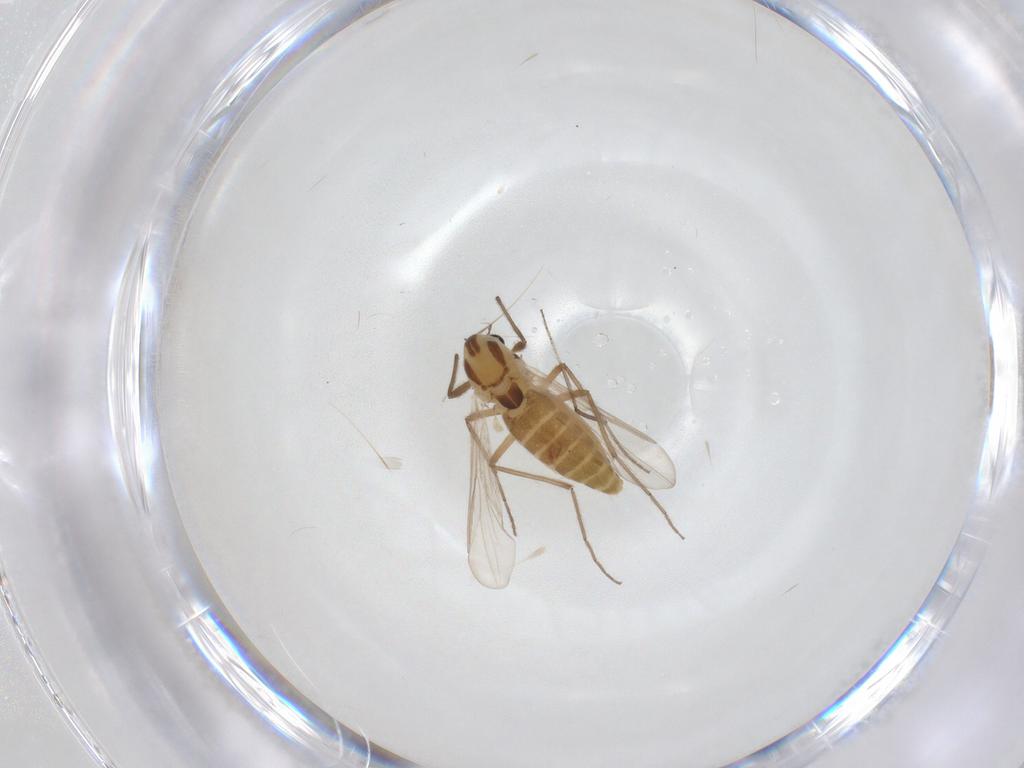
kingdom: Animalia
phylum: Arthropoda
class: Insecta
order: Diptera
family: Chironomidae
